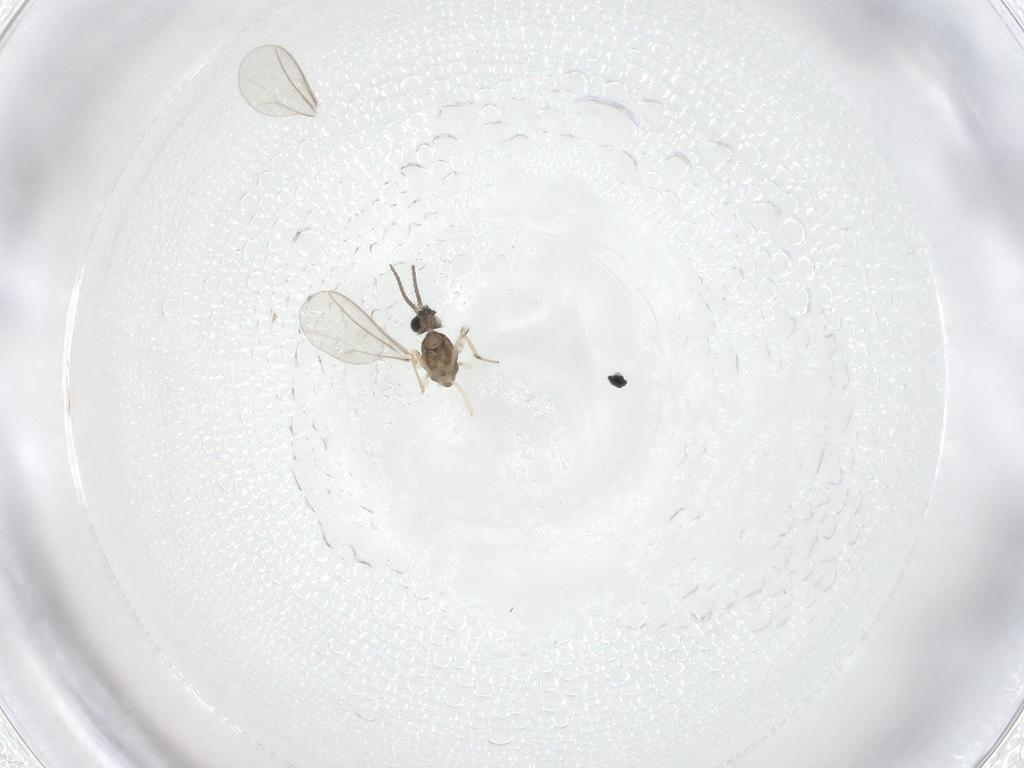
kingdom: Animalia
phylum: Arthropoda
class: Insecta
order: Diptera
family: Cecidomyiidae
